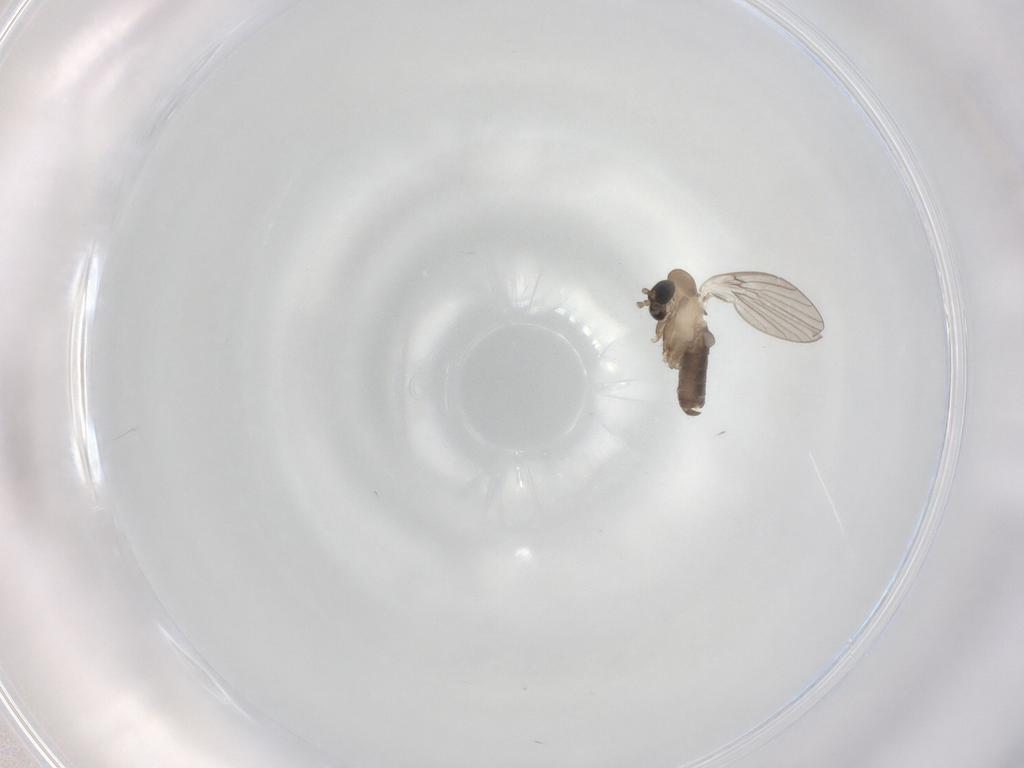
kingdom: Animalia
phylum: Arthropoda
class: Insecta
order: Diptera
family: Psychodidae
